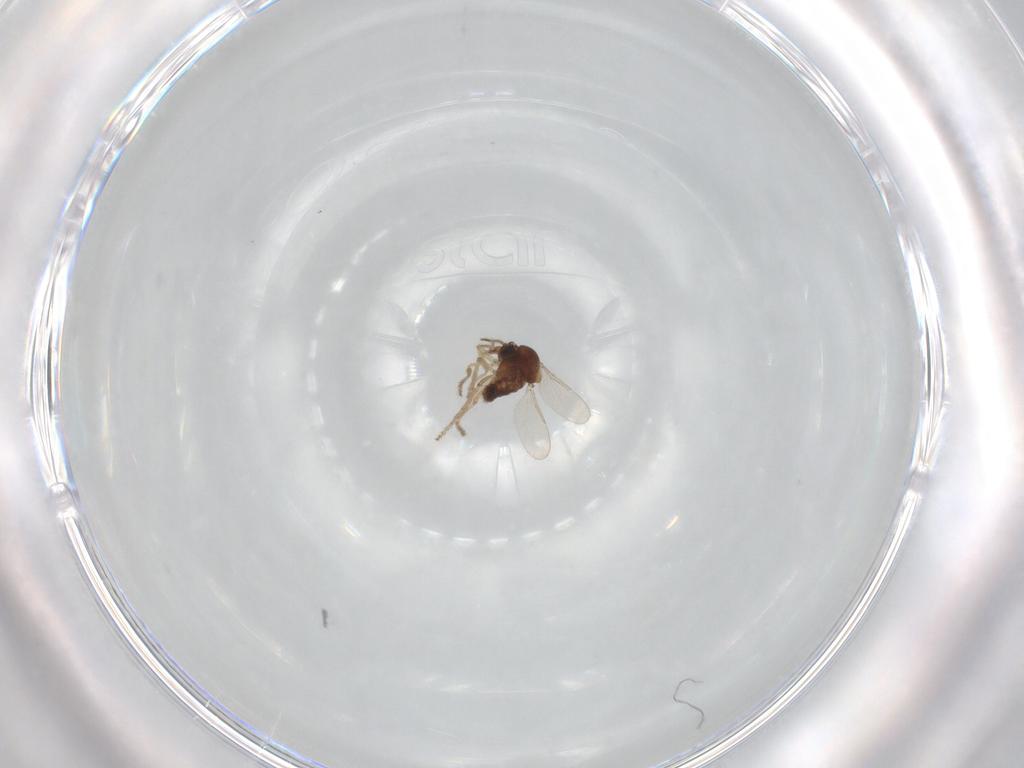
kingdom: Animalia
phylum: Arthropoda
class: Insecta
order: Diptera
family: Ceratopogonidae
